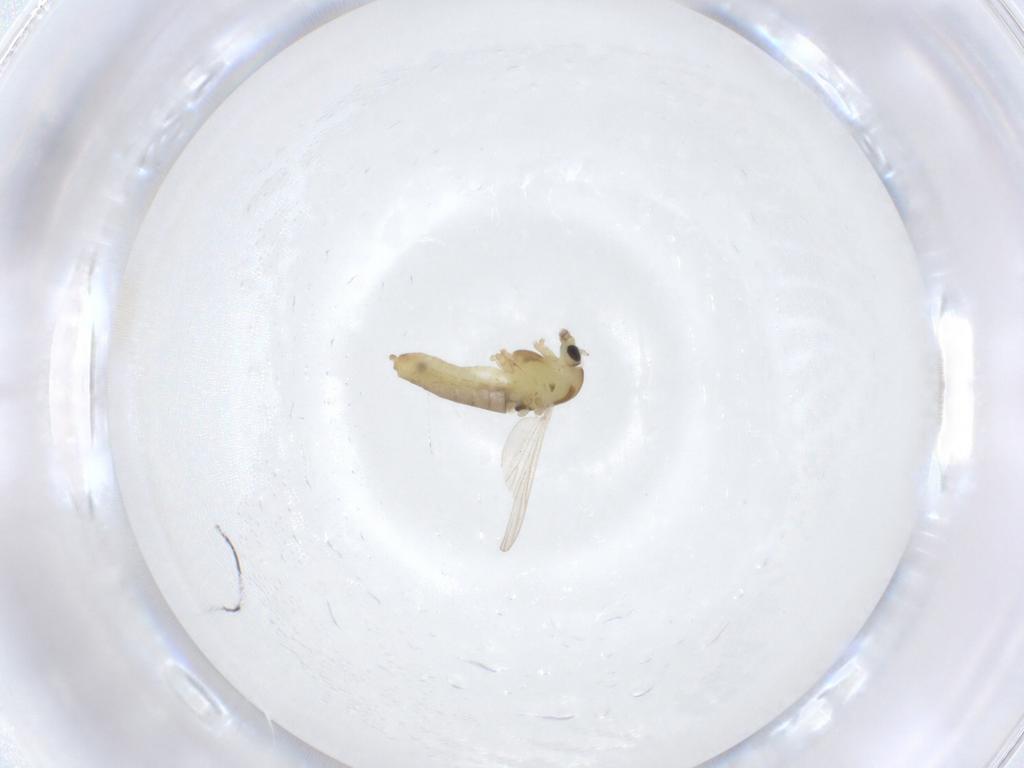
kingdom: Animalia
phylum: Arthropoda
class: Insecta
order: Diptera
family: Chironomidae
